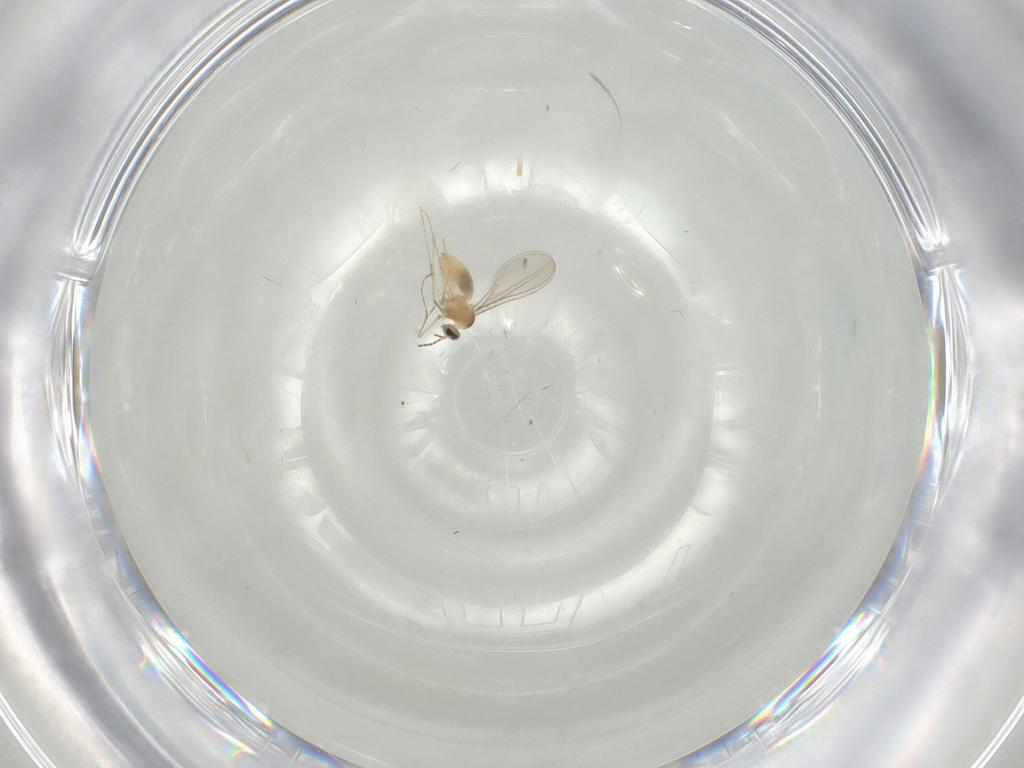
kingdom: Animalia
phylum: Arthropoda
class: Insecta
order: Diptera
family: Cecidomyiidae
